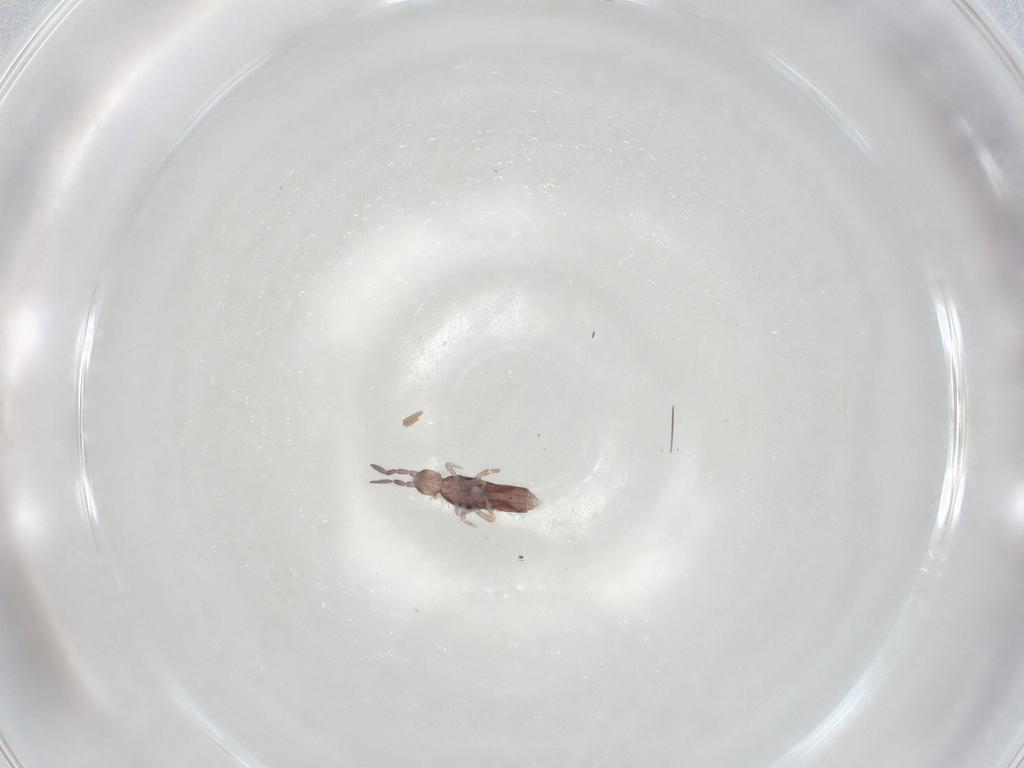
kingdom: Animalia
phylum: Arthropoda
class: Collembola
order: Entomobryomorpha
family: Entomobryidae
